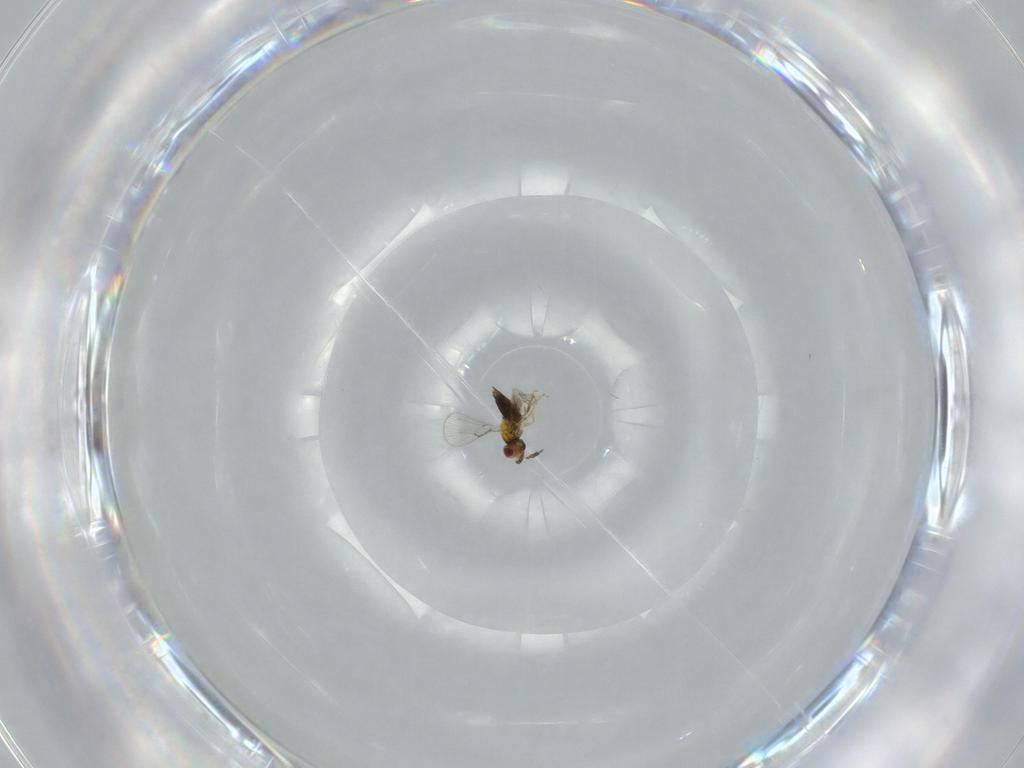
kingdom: Animalia
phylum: Arthropoda
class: Insecta
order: Hymenoptera
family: Trichogrammatidae
